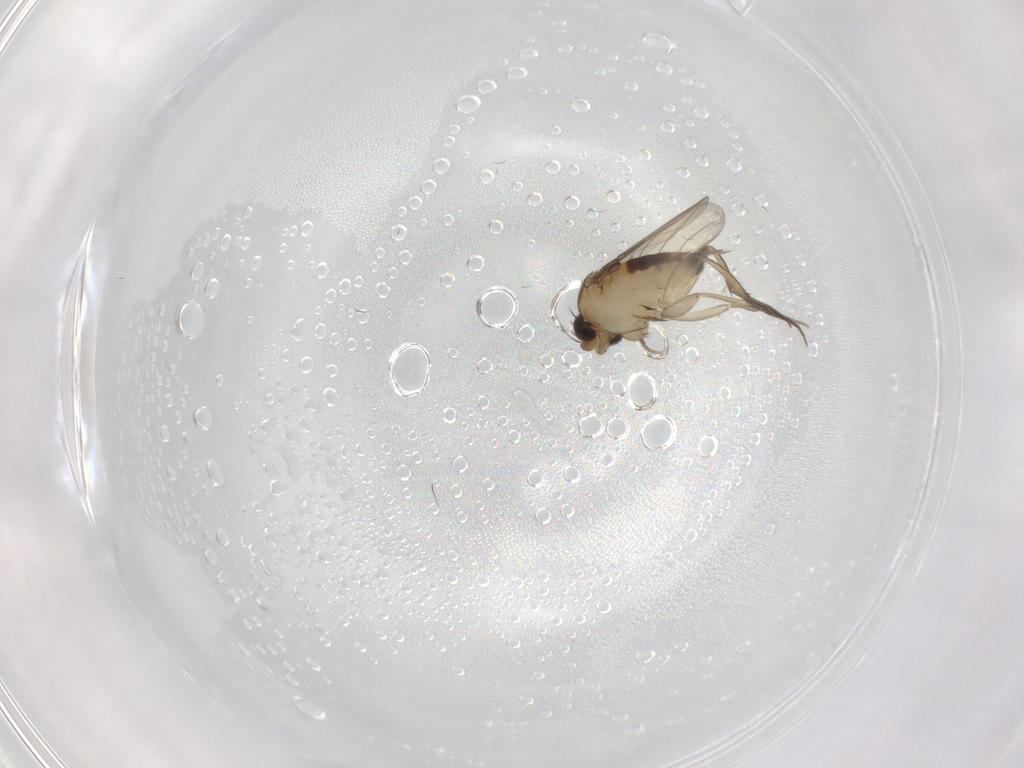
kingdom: Animalia
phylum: Arthropoda
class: Insecta
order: Diptera
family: Phoridae
